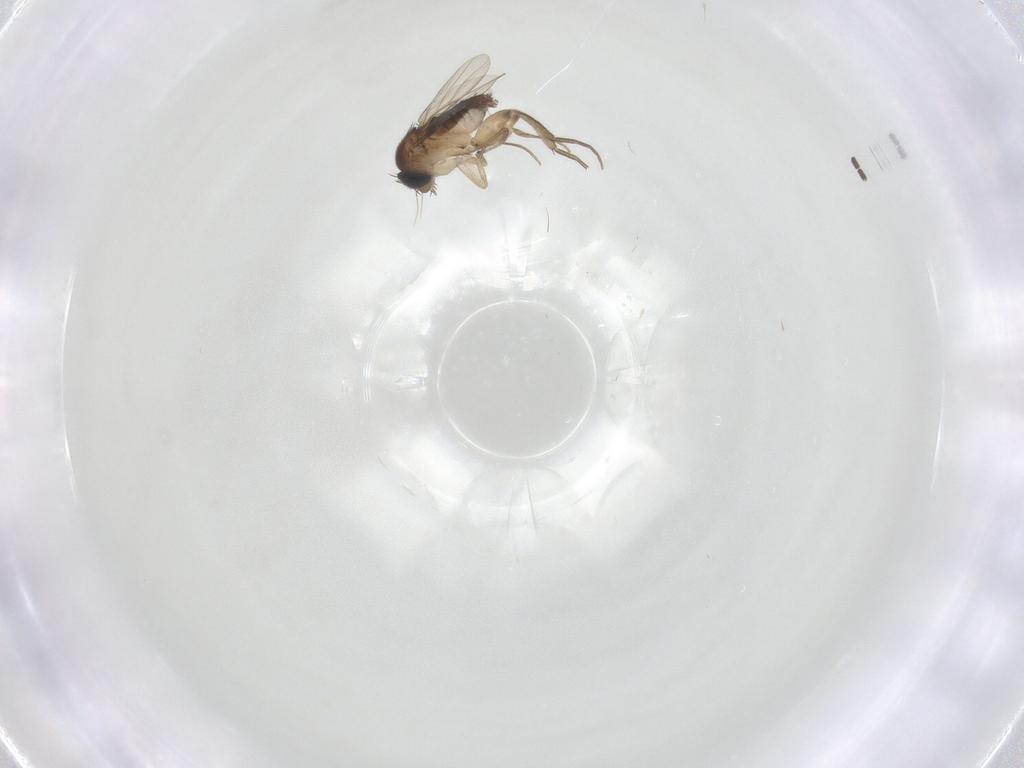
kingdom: Animalia
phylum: Arthropoda
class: Insecta
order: Diptera
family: Phoridae
